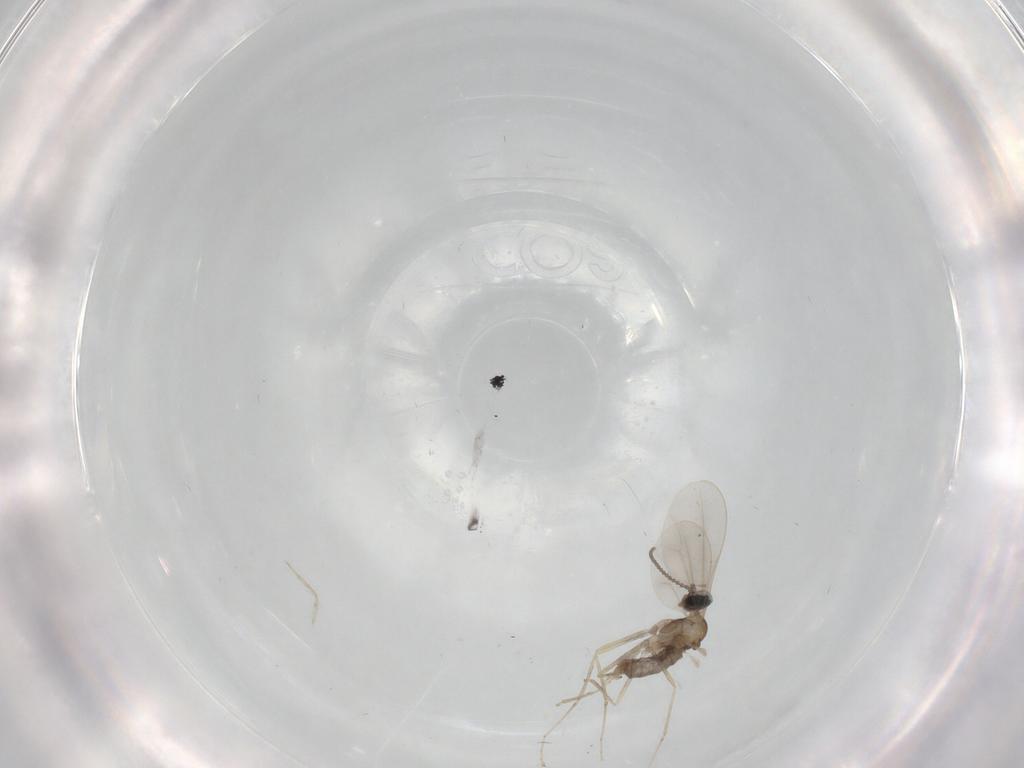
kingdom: Animalia
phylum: Arthropoda
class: Insecta
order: Diptera
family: Cecidomyiidae
